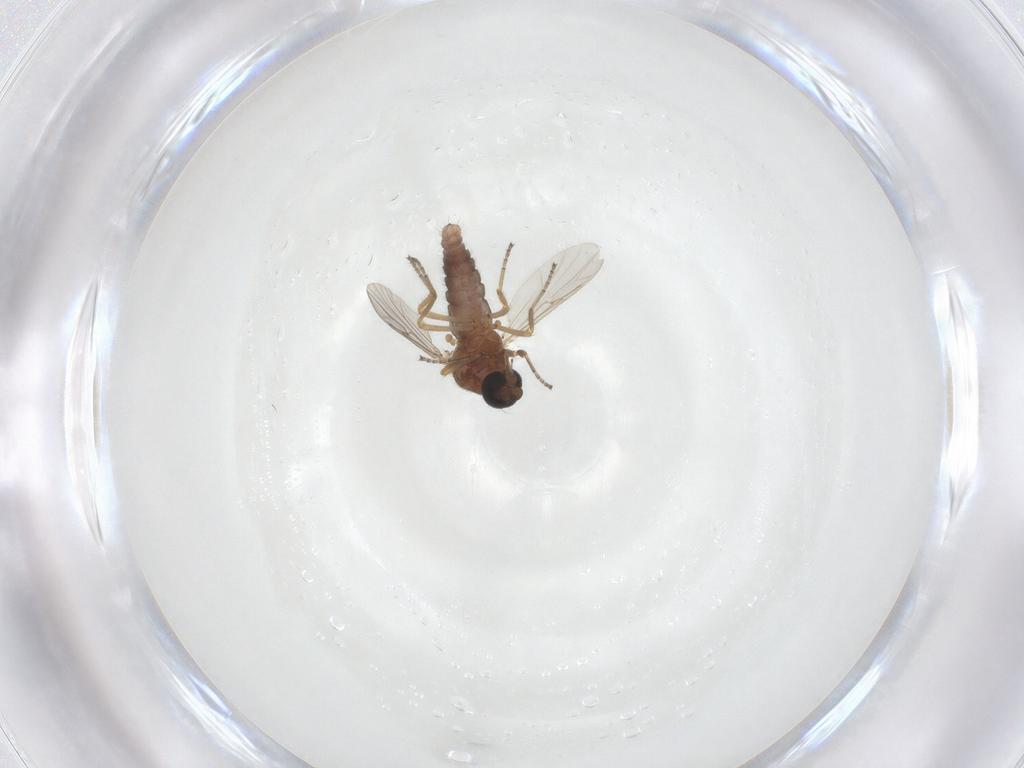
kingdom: Animalia
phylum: Arthropoda
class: Insecta
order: Diptera
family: Ceratopogonidae
